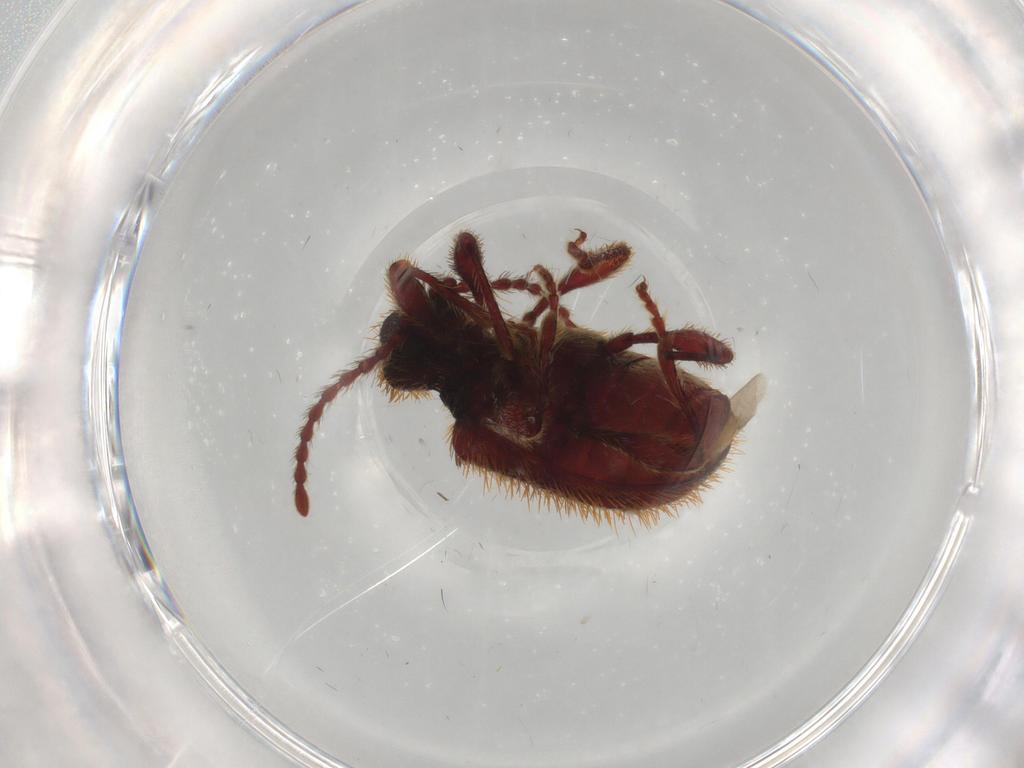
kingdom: Animalia
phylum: Arthropoda
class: Insecta
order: Coleoptera
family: Ptinidae
